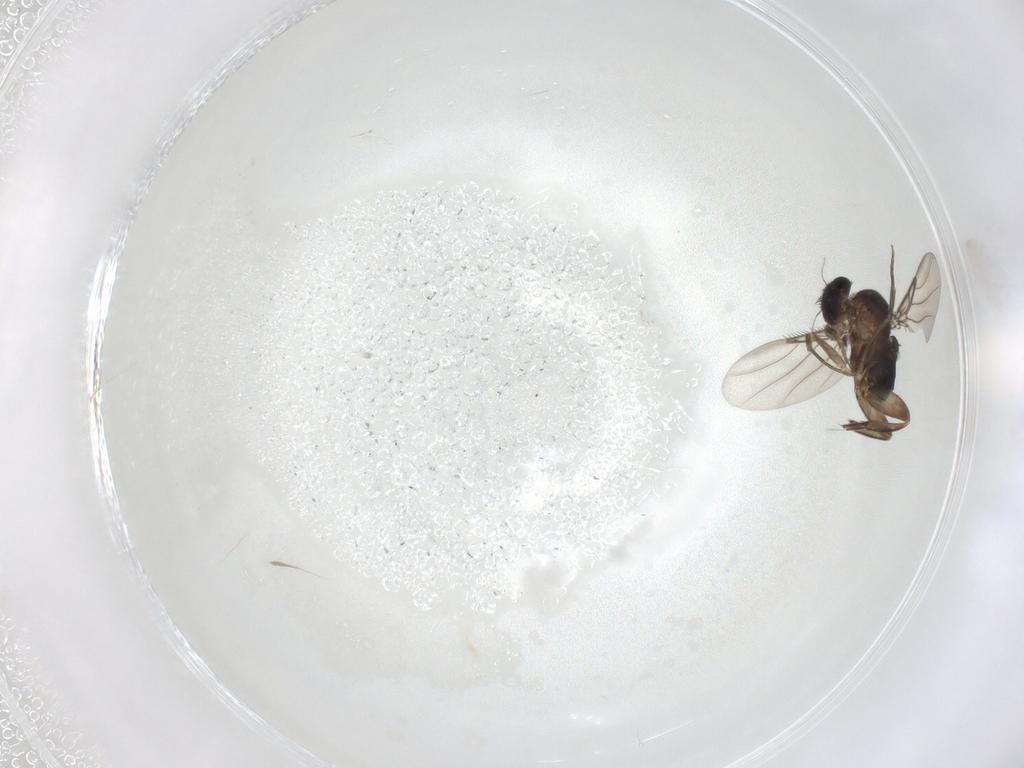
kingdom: Animalia
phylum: Arthropoda
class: Insecta
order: Diptera
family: Phoridae
